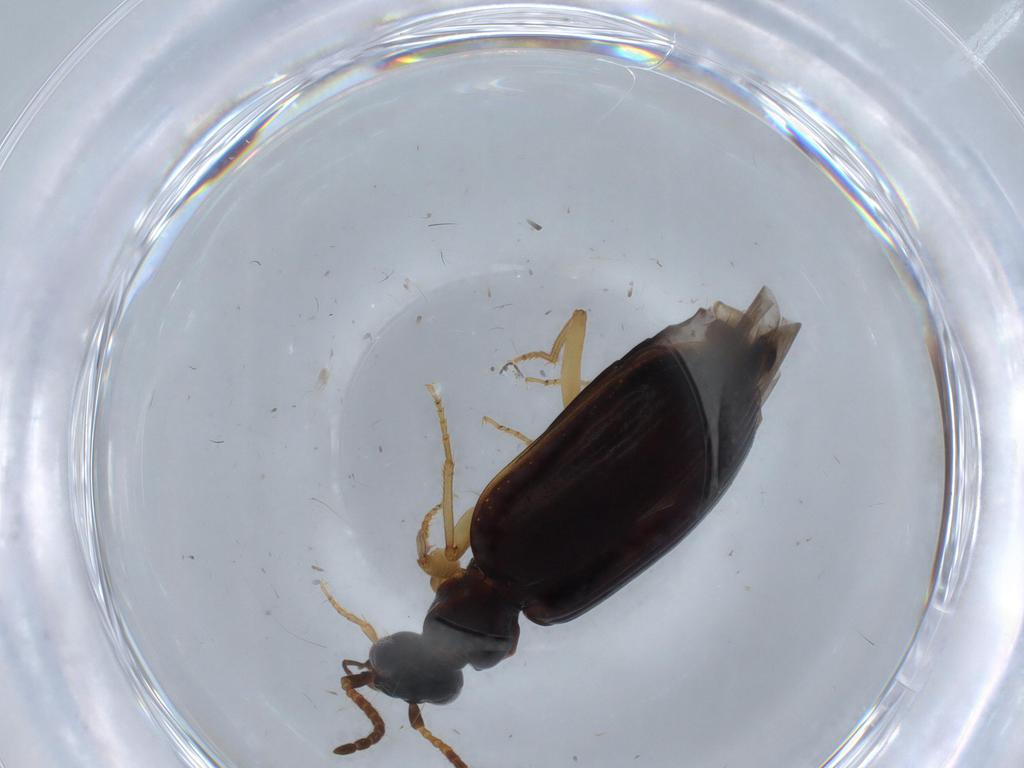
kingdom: Animalia
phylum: Arthropoda
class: Insecta
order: Coleoptera
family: Carabidae
